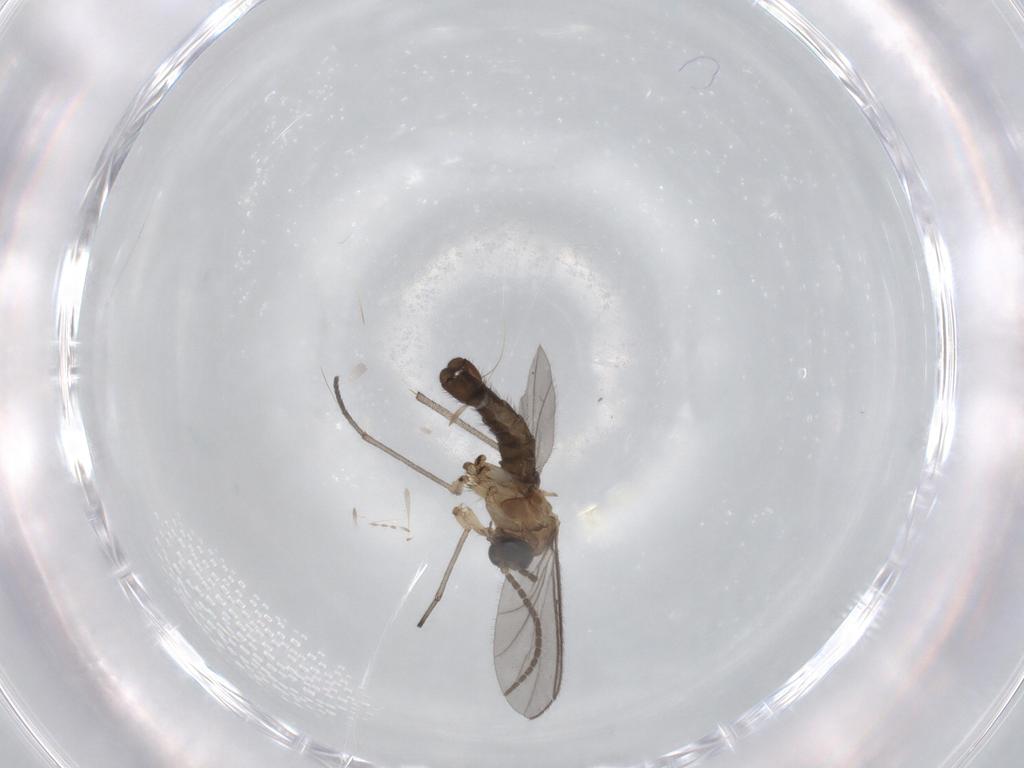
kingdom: Animalia
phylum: Arthropoda
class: Insecta
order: Diptera
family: Sciaridae
